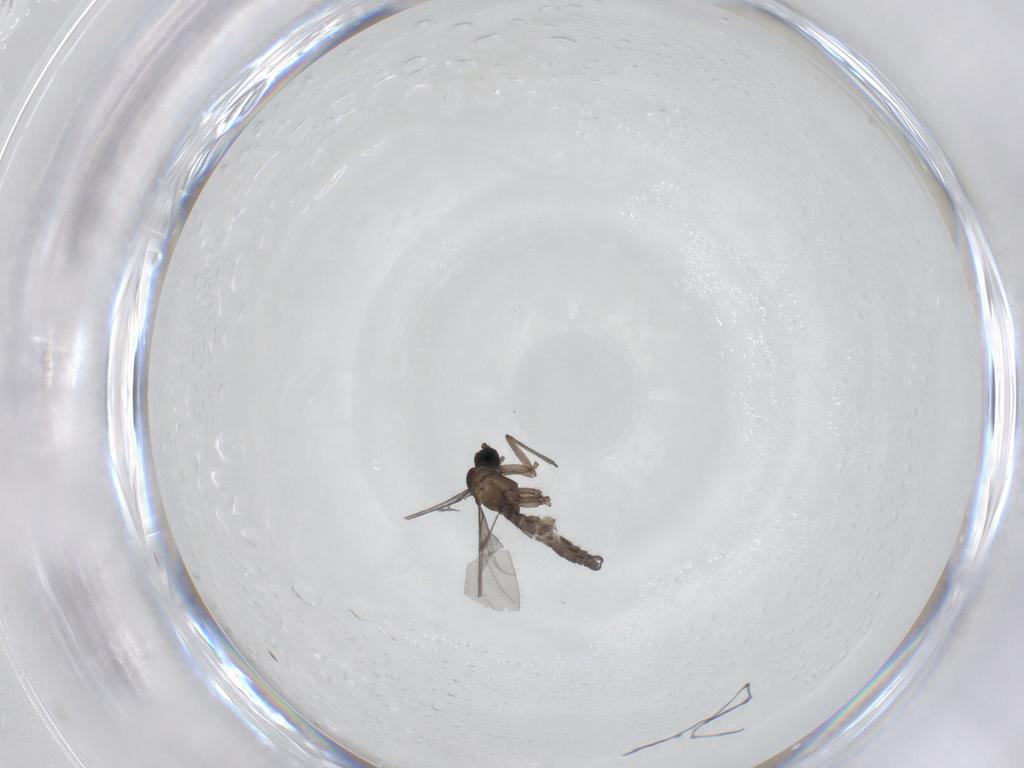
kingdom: Animalia
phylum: Arthropoda
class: Insecta
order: Diptera
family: Sciaridae
